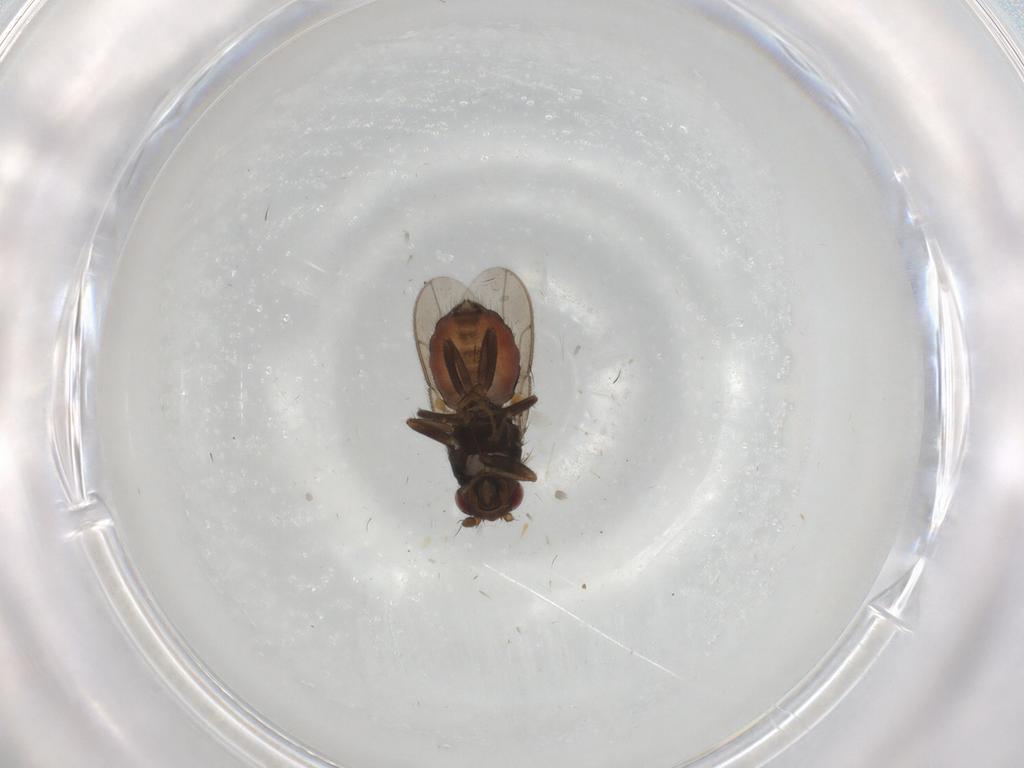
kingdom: Animalia
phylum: Arthropoda
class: Insecta
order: Diptera
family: Sphaeroceridae
